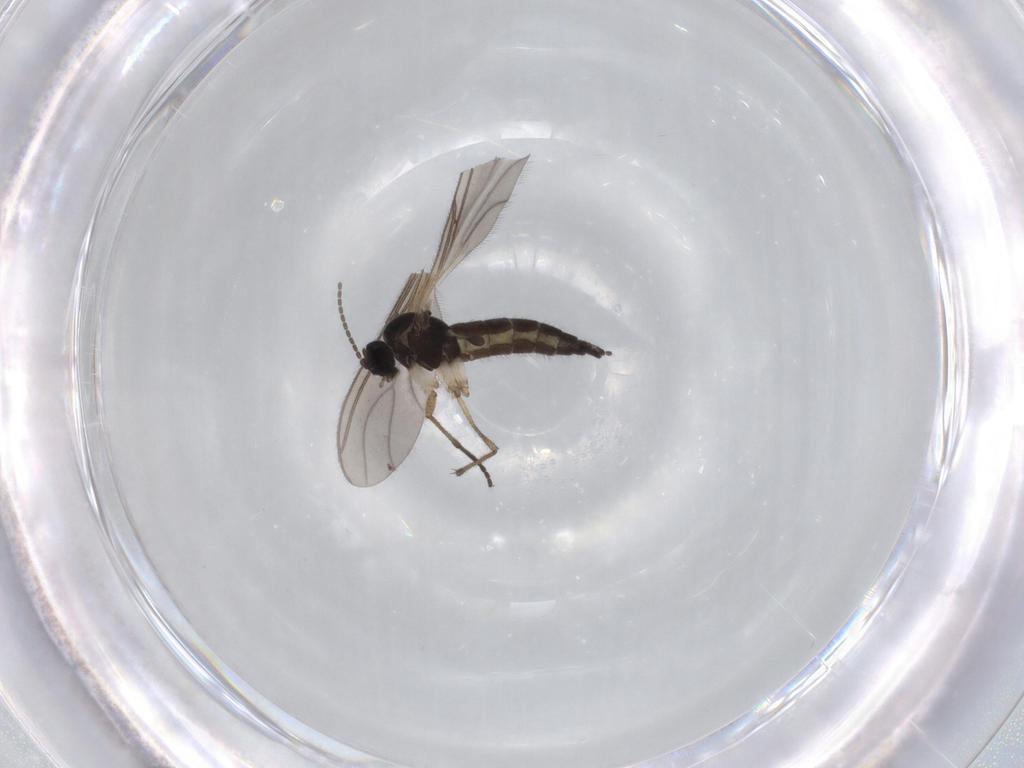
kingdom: Animalia
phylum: Arthropoda
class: Insecta
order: Diptera
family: Sciaridae
